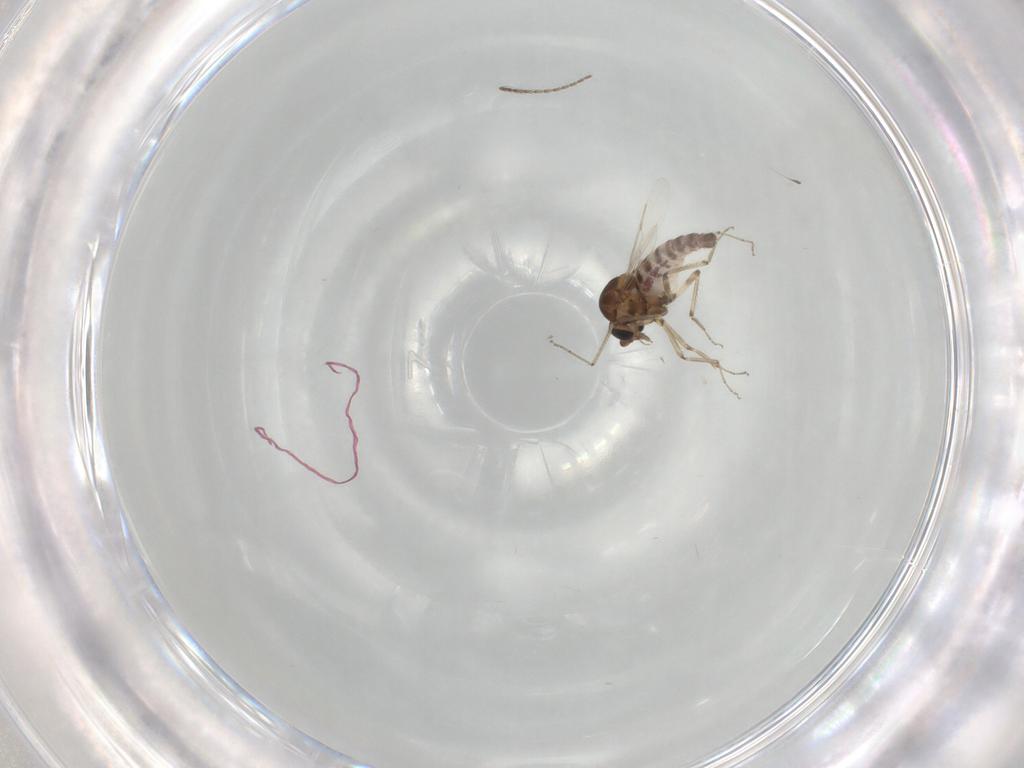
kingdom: Animalia
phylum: Arthropoda
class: Insecta
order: Diptera
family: Ceratopogonidae
